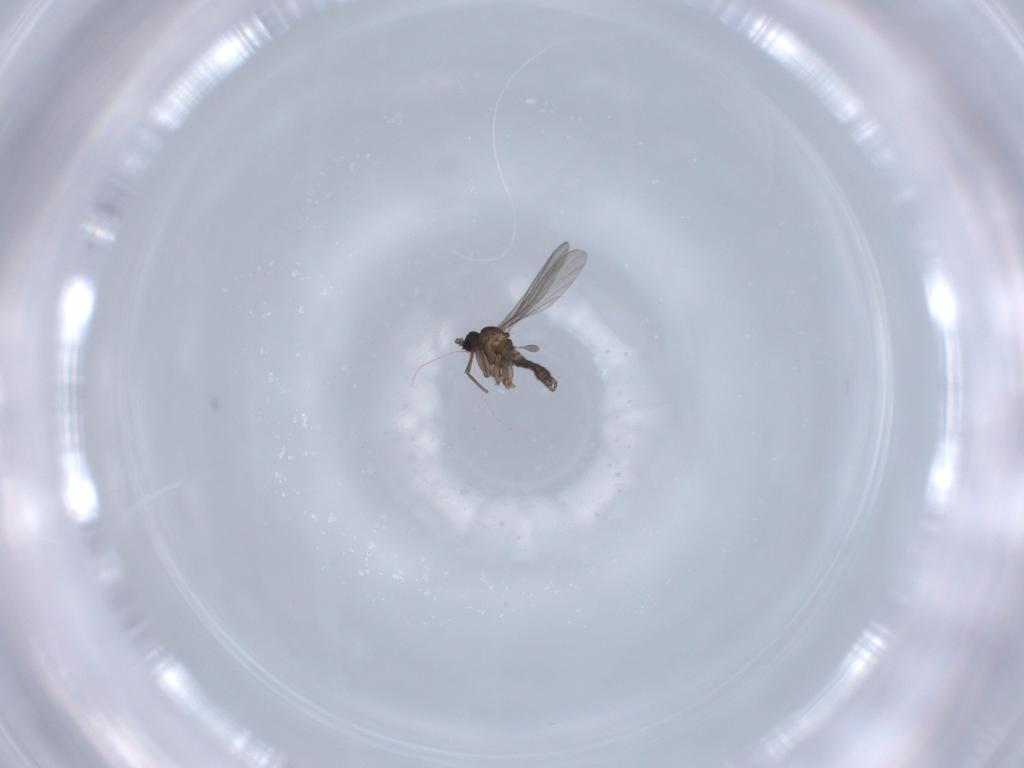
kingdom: Animalia
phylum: Arthropoda
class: Insecta
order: Diptera
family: Sciaridae
